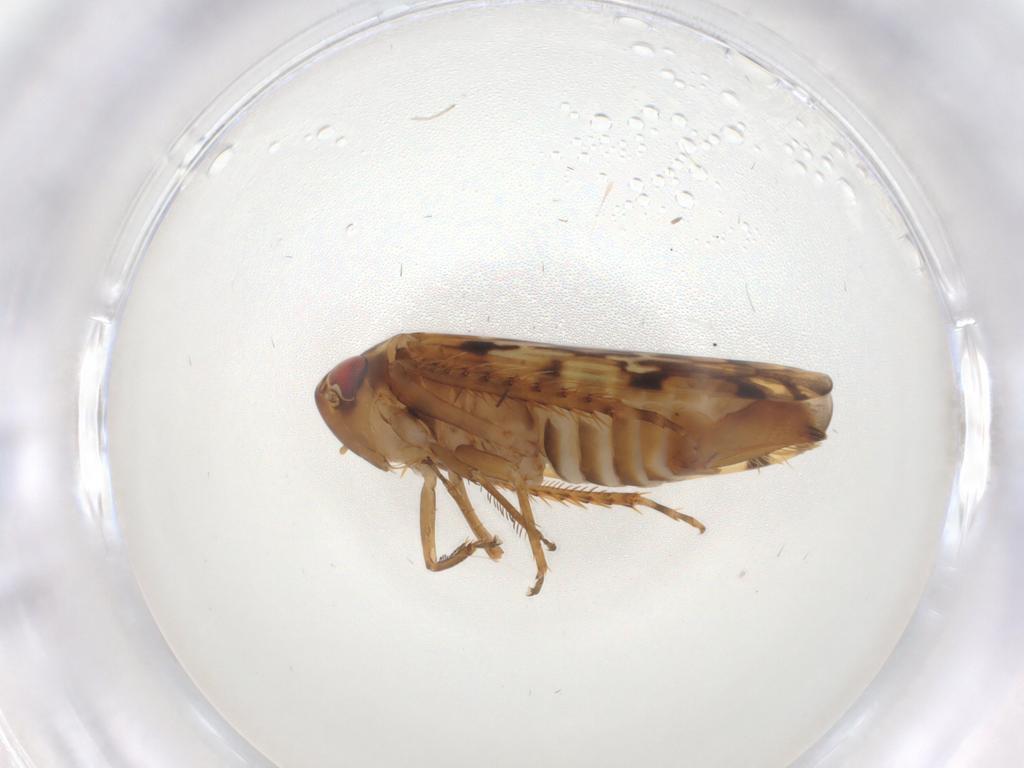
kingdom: Animalia
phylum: Arthropoda
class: Insecta
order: Hemiptera
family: Cicadellidae
